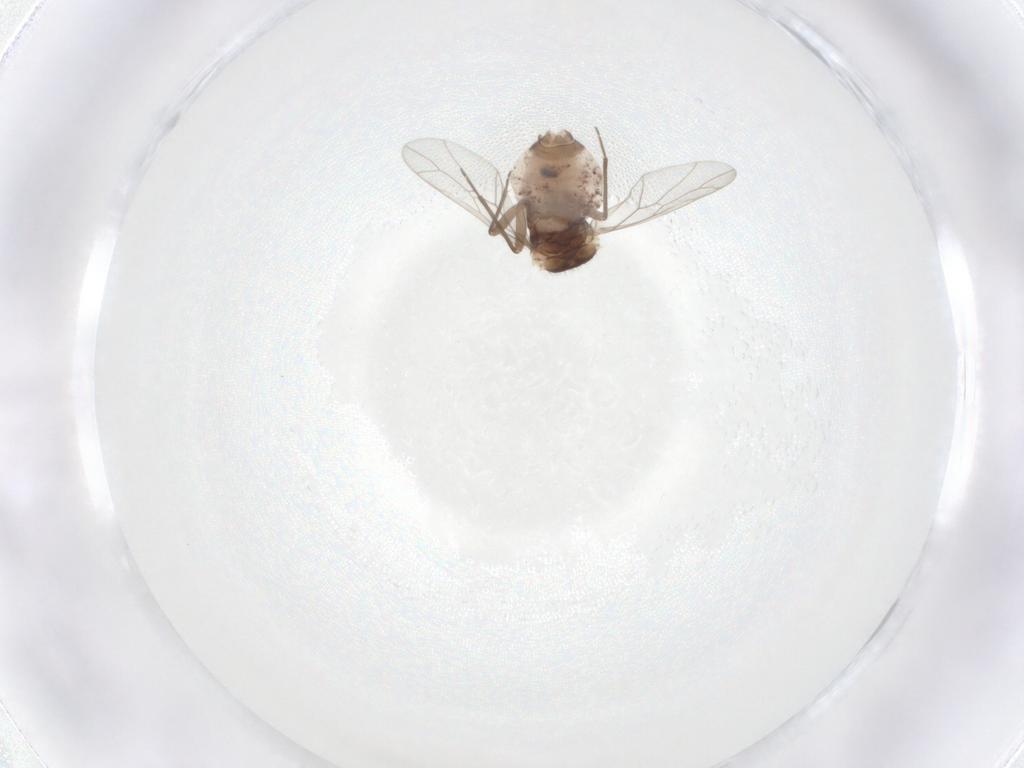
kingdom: Animalia
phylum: Arthropoda
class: Insecta
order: Psocodea
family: Ectopsocidae
